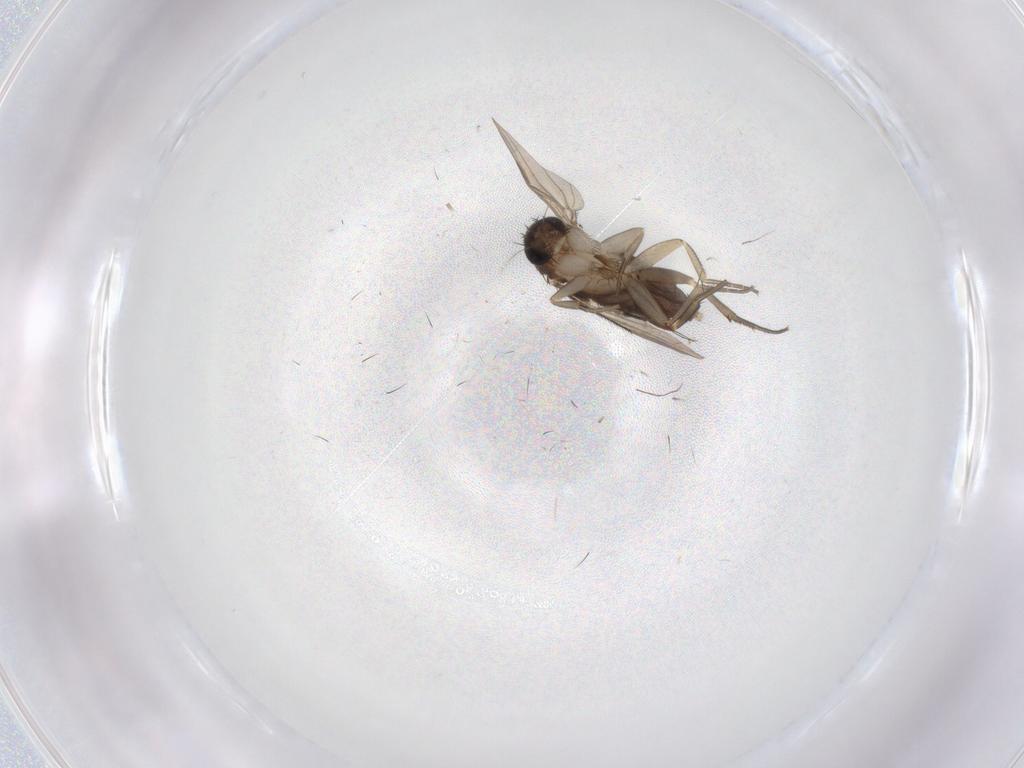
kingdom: Animalia
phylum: Arthropoda
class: Insecta
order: Diptera
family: Phoridae
